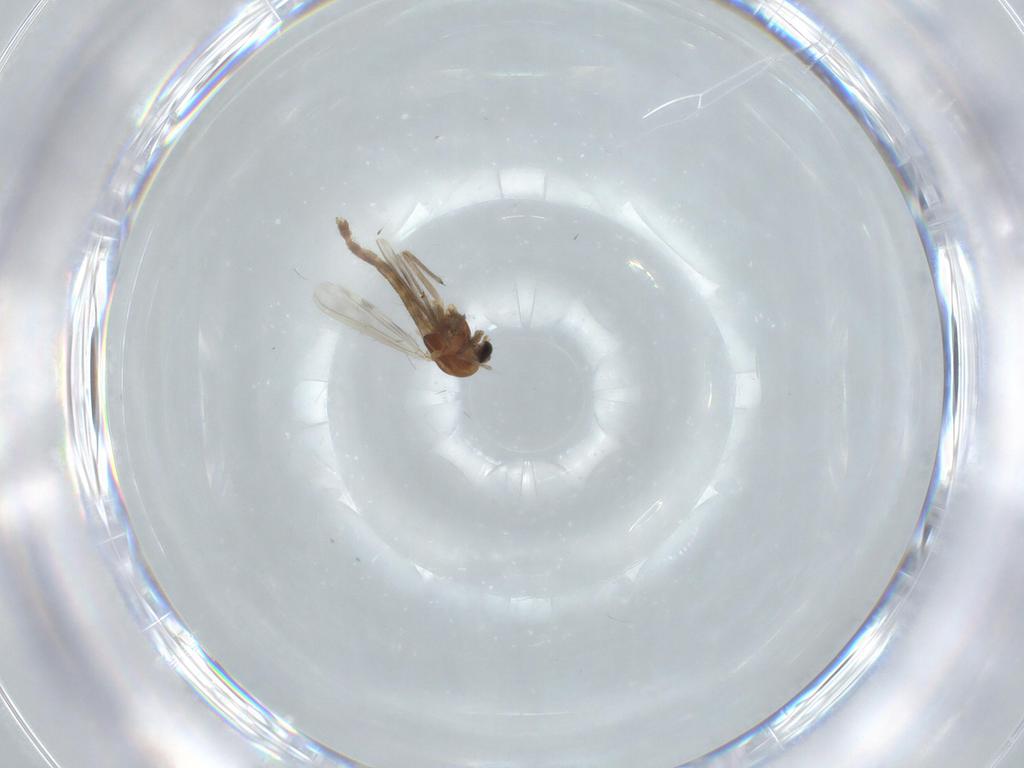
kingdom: Animalia
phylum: Arthropoda
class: Insecta
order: Diptera
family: Chironomidae
